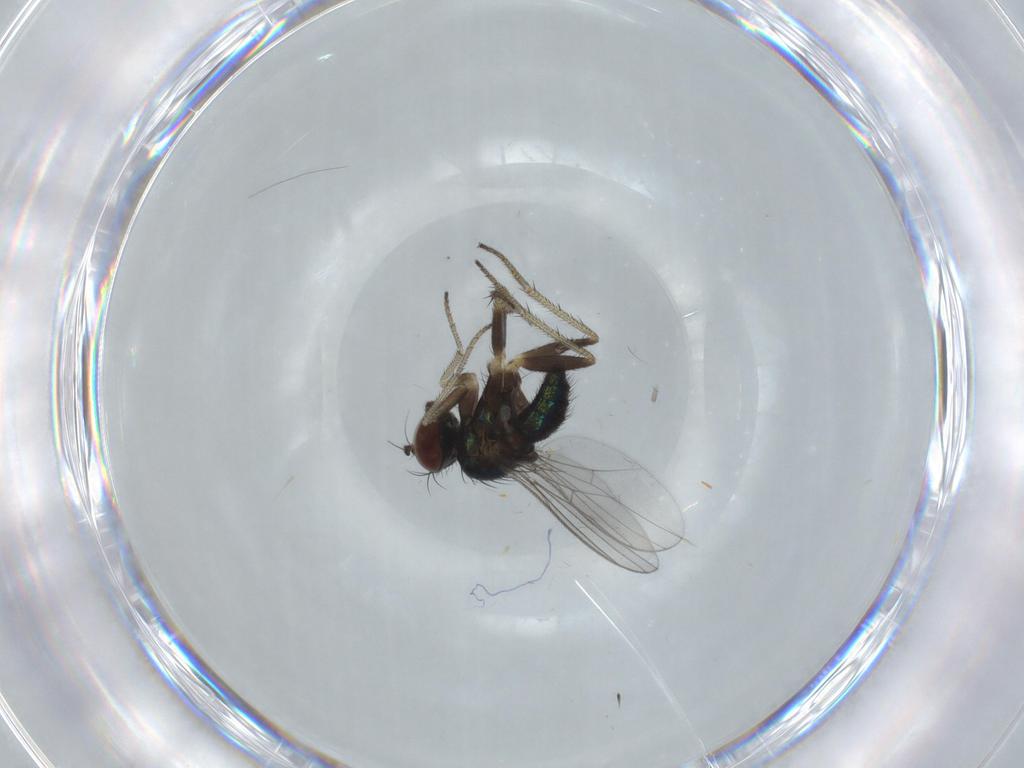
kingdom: Animalia
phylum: Arthropoda
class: Insecta
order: Diptera
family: Dolichopodidae
